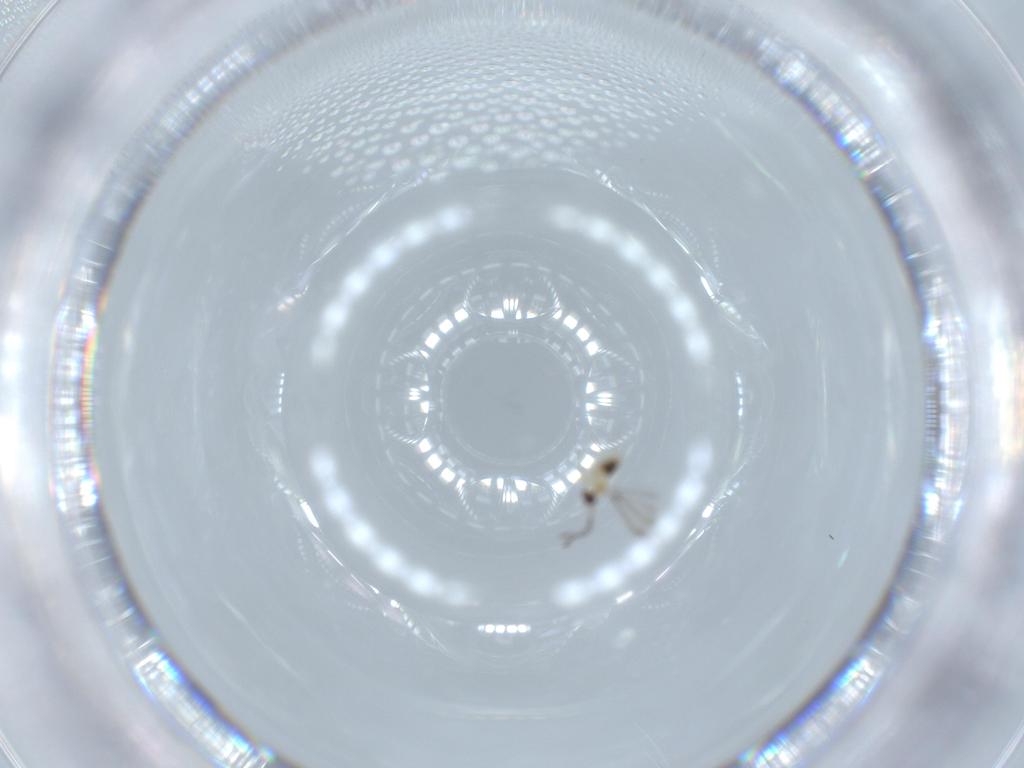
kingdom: Animalia
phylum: Arthropoda
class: Insecta
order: Hymenoptera
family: Mymaridae
